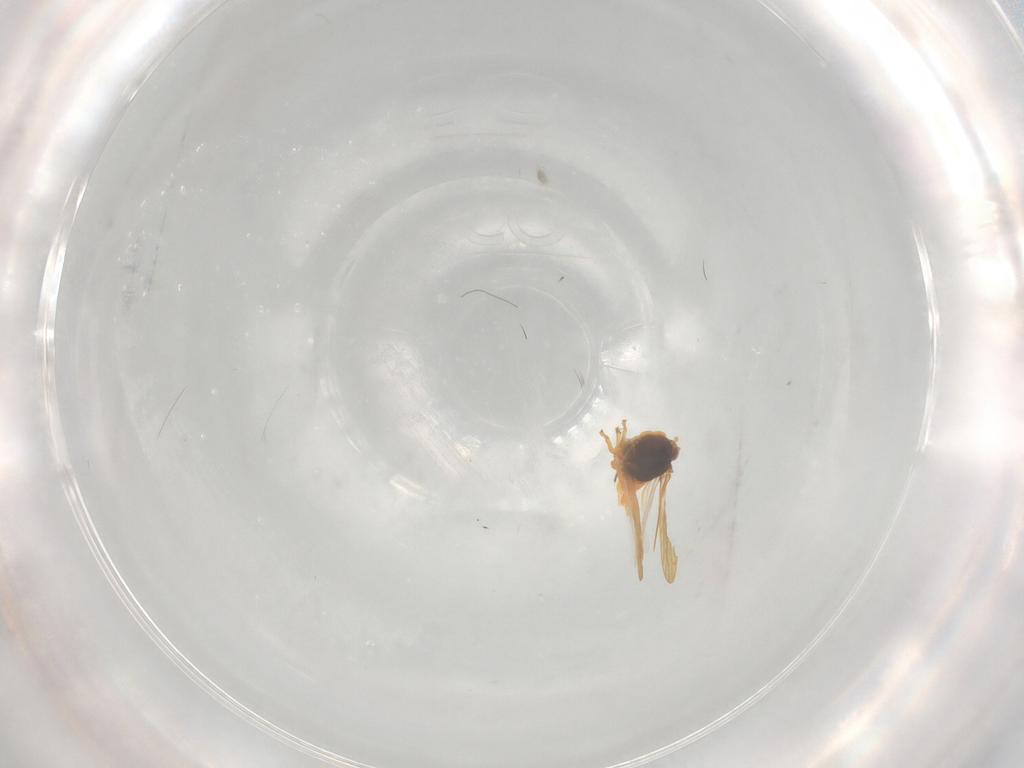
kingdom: Animalia
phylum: Arthropoda
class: Insecta
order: Hemiptera
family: Psylloidea_incertae_sedis
